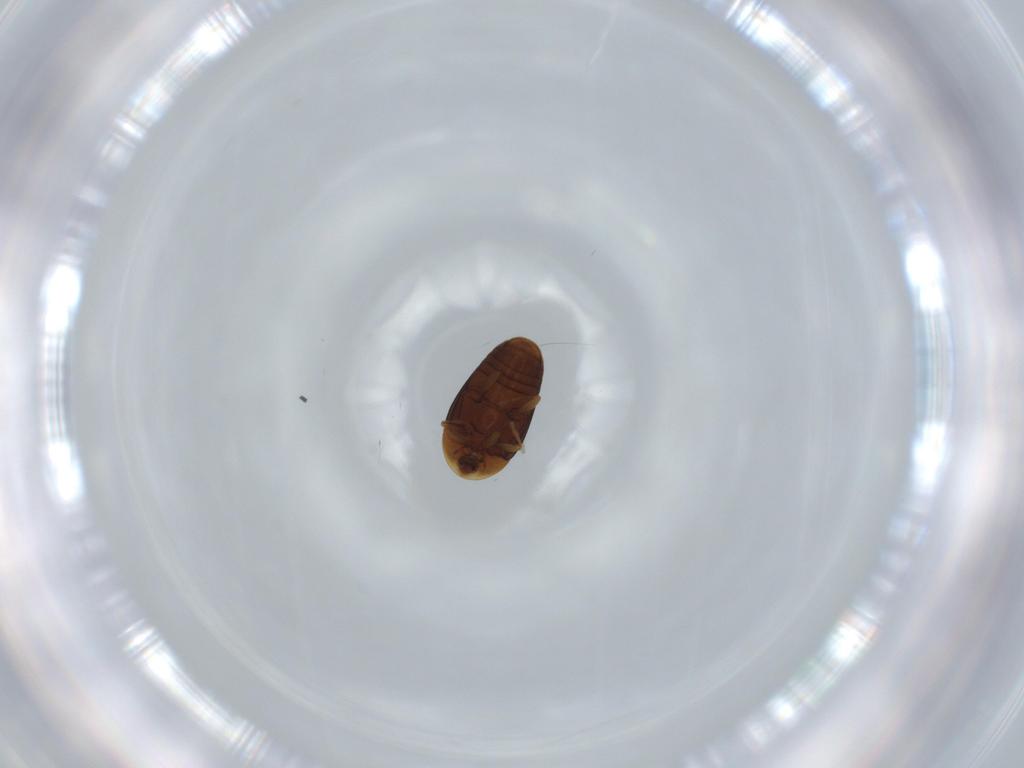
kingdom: Animalia
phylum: Arthropoda
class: Insecta
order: Coleoptera
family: Corylophidae
